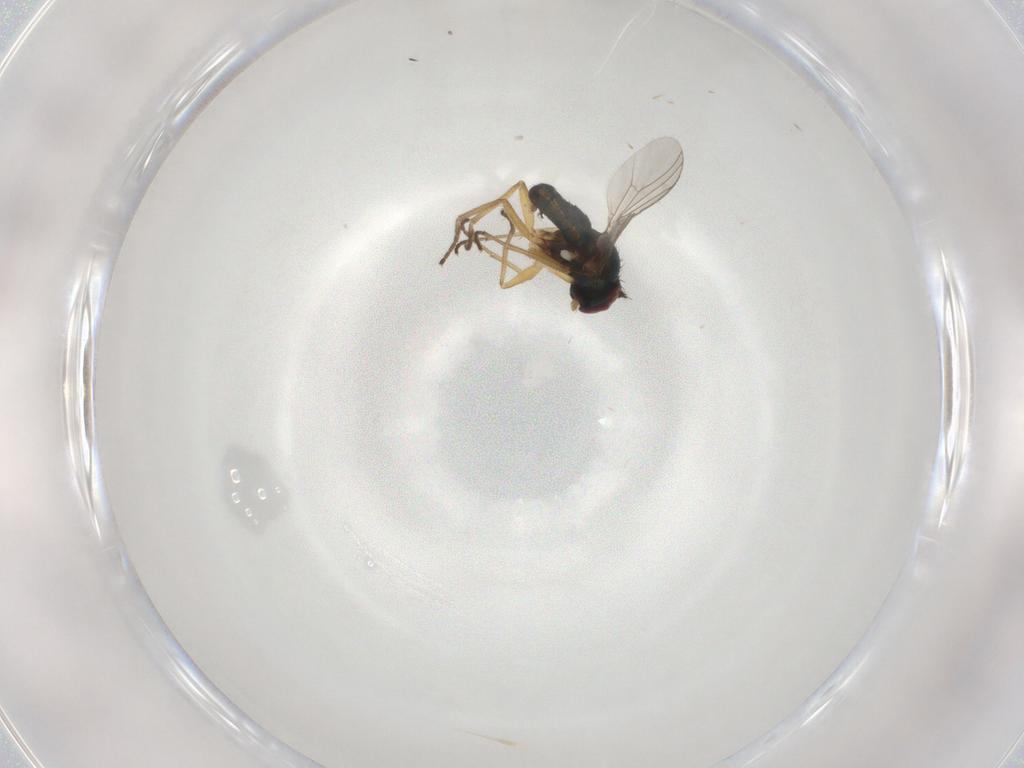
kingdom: Animalia
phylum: Arthropoda
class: Insecta
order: Diptera
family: Dolichopodidae
